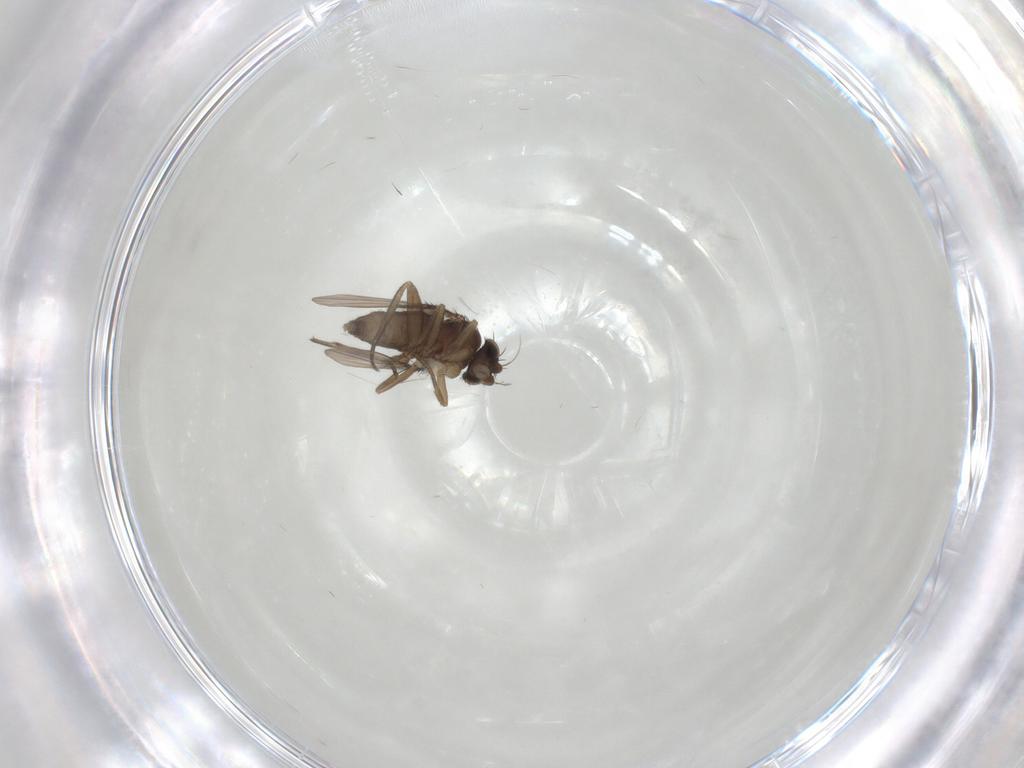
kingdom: Animalia
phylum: Arthropoda
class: Insecta
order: Diptera
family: Phoridae
